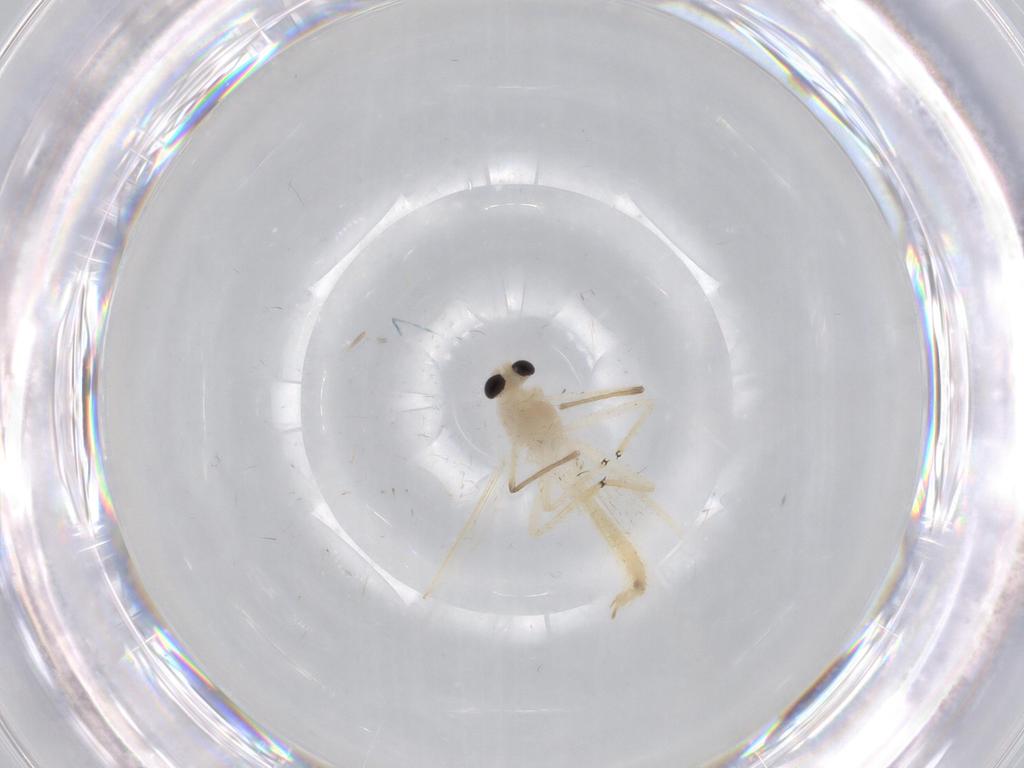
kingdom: Animalia
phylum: Arthropoda
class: Insecta
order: Diptera
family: Chironomidae
